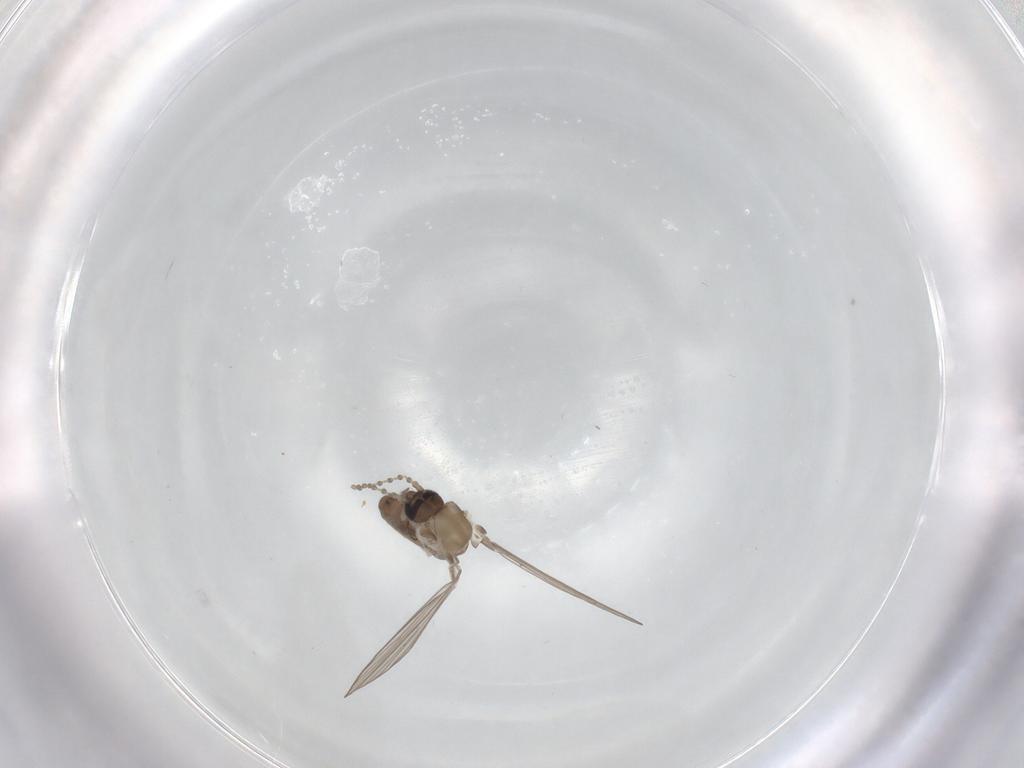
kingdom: Animalia
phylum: Arthropoda
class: Insecta
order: Diptera
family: Psychodidae
